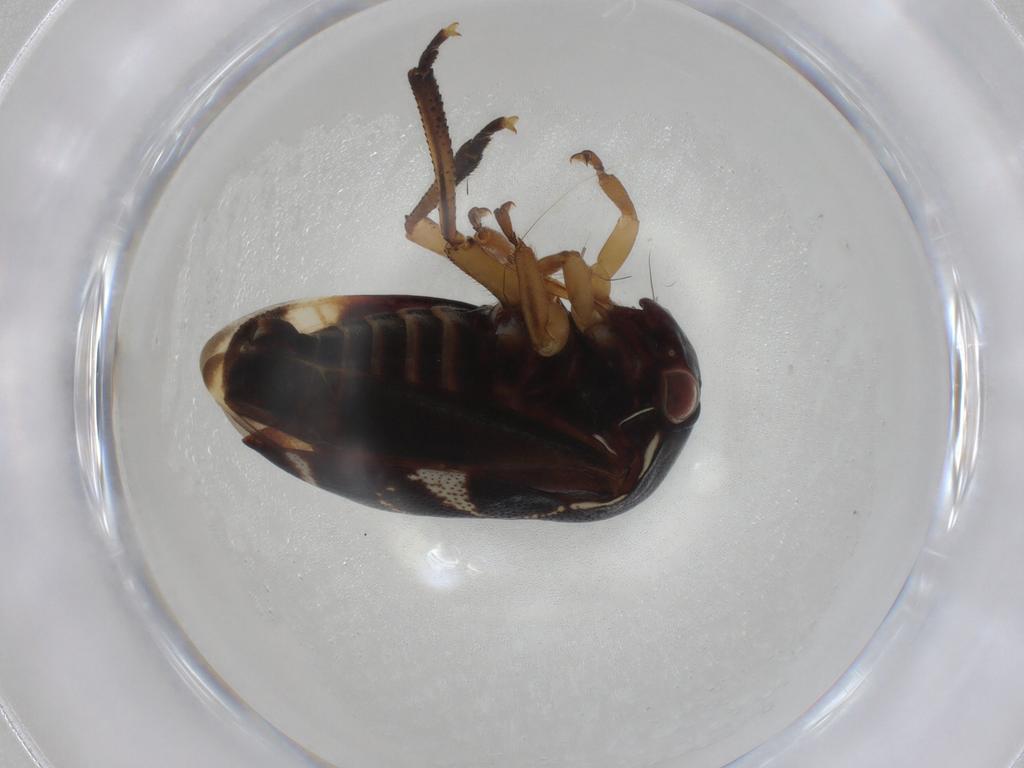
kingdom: Animalia
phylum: Arthropoda
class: Insecta
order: Hemiptera
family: Membracidae
